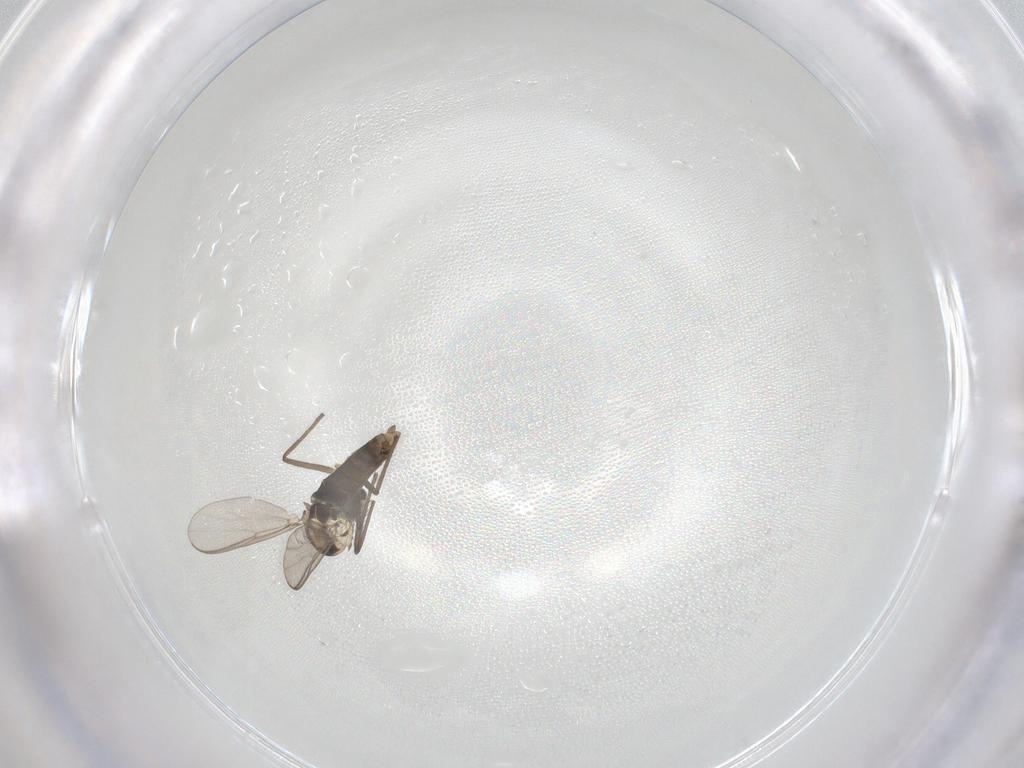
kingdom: Animalia
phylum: Arthropoda
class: Insecta
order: Diptera
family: Chironomidae
